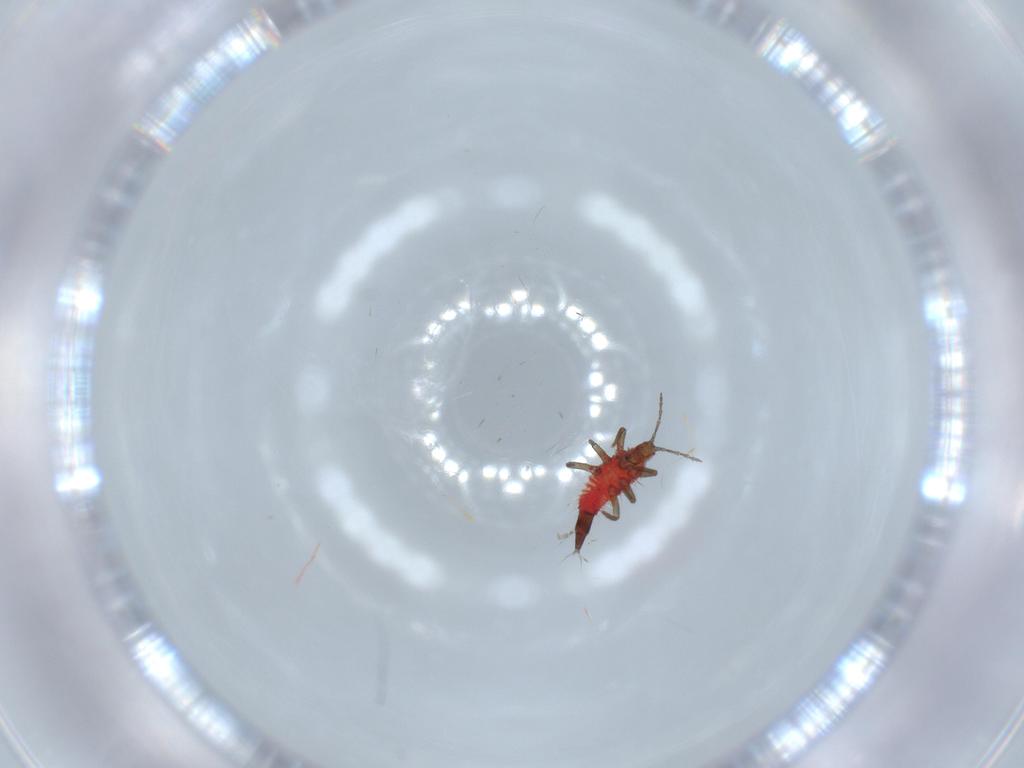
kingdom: Animalia
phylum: Arthropoda
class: Insecta
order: Thysanoptera
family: Phlaeothripidae
